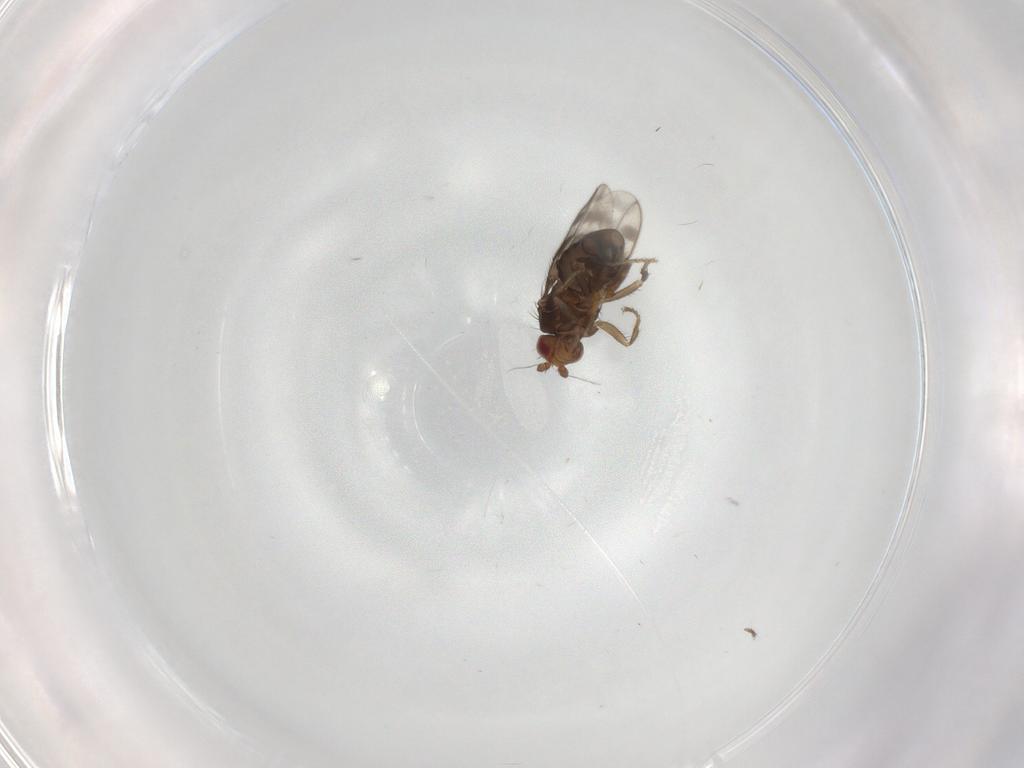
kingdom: Animalia
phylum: Arthropoda
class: Insecta
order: Diptera
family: Sphaeroceridae
